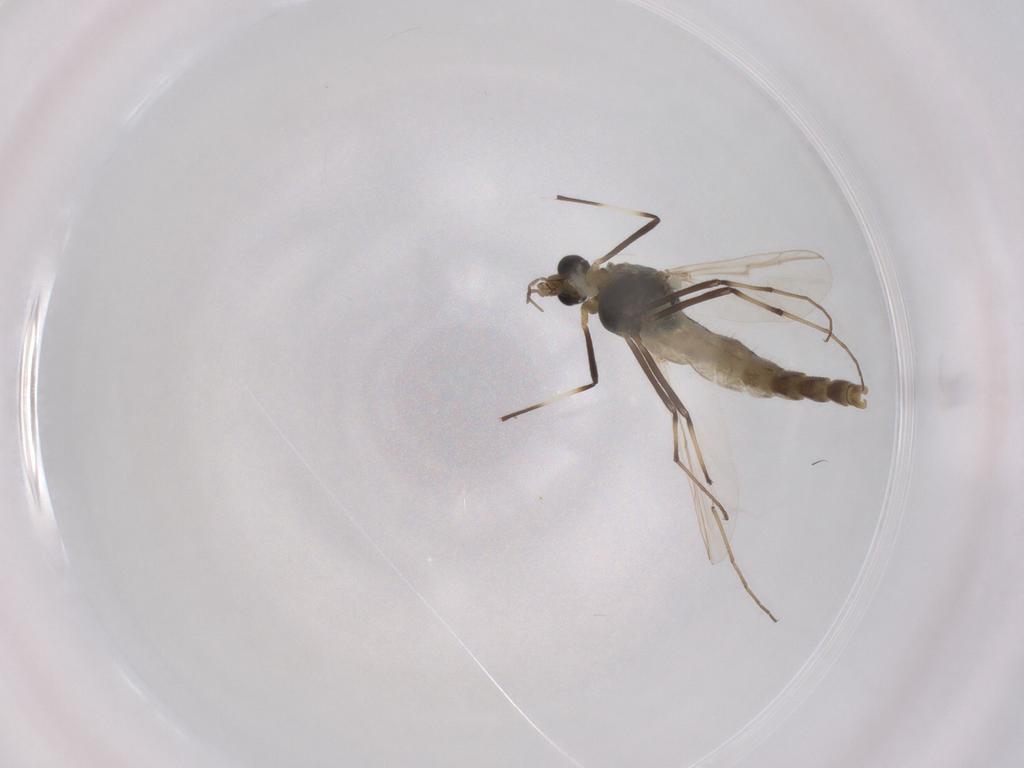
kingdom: Animalia
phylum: Arthropoda
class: Insecta
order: Diptera
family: Chironomidae
